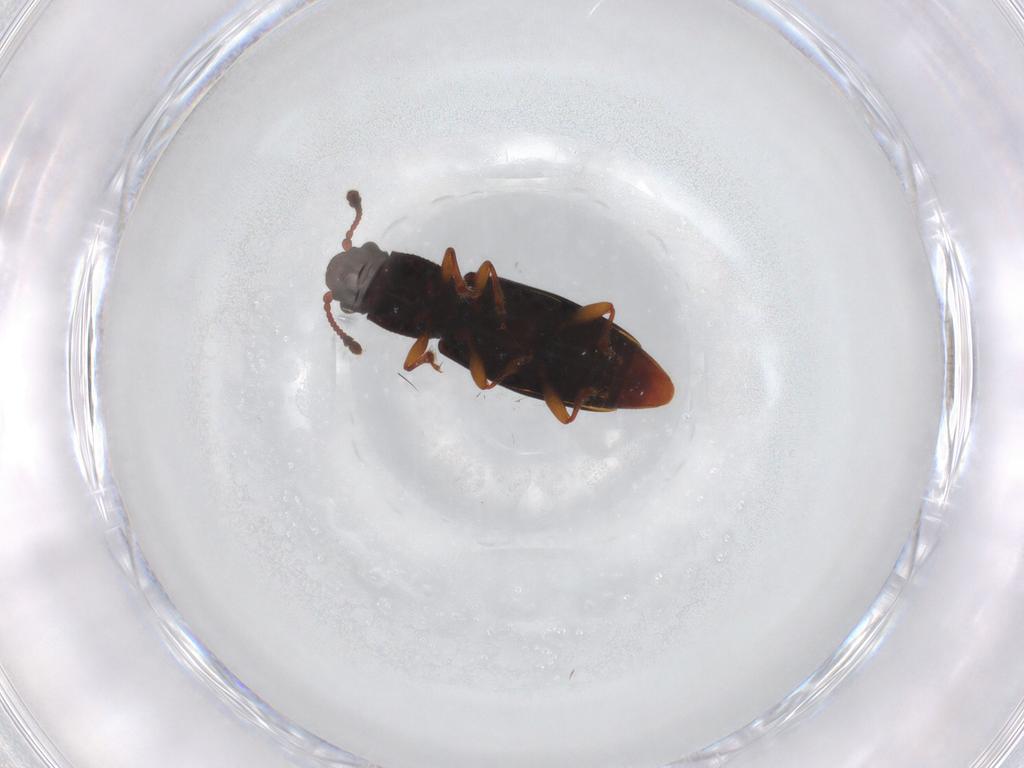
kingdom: Animalia
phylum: Arthropoda
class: Insecta
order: Coleoptera
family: Monotomidae
